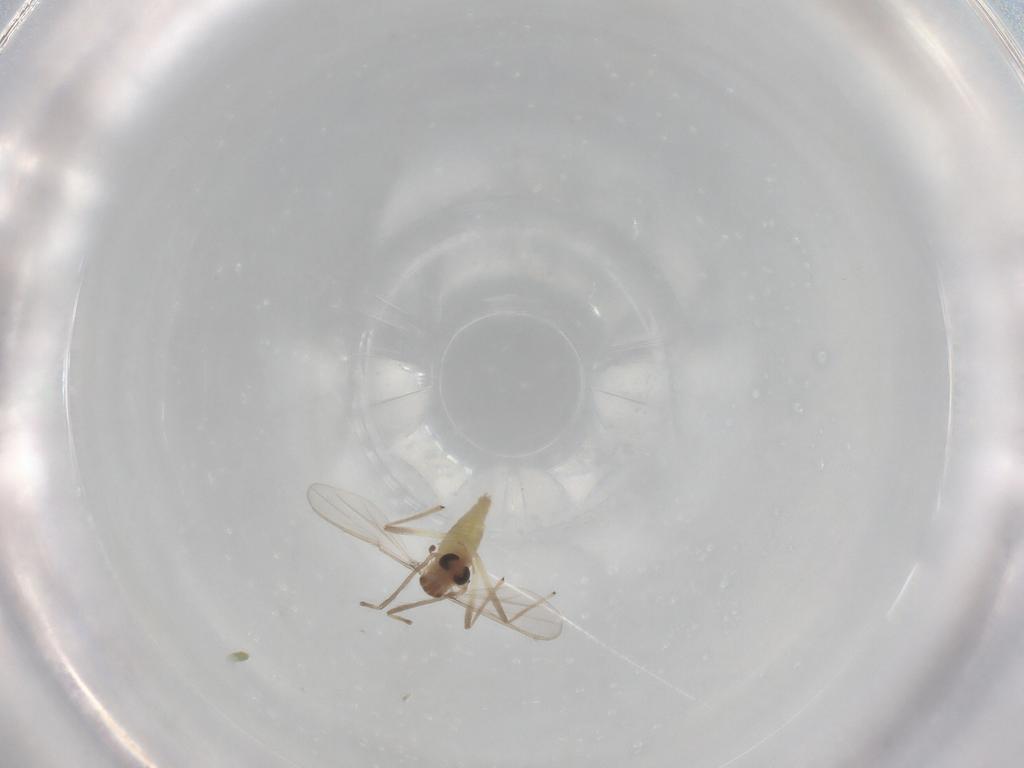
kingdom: Animalia
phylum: Arthropoda
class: Insecta
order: Diptera
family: Chironomidae
